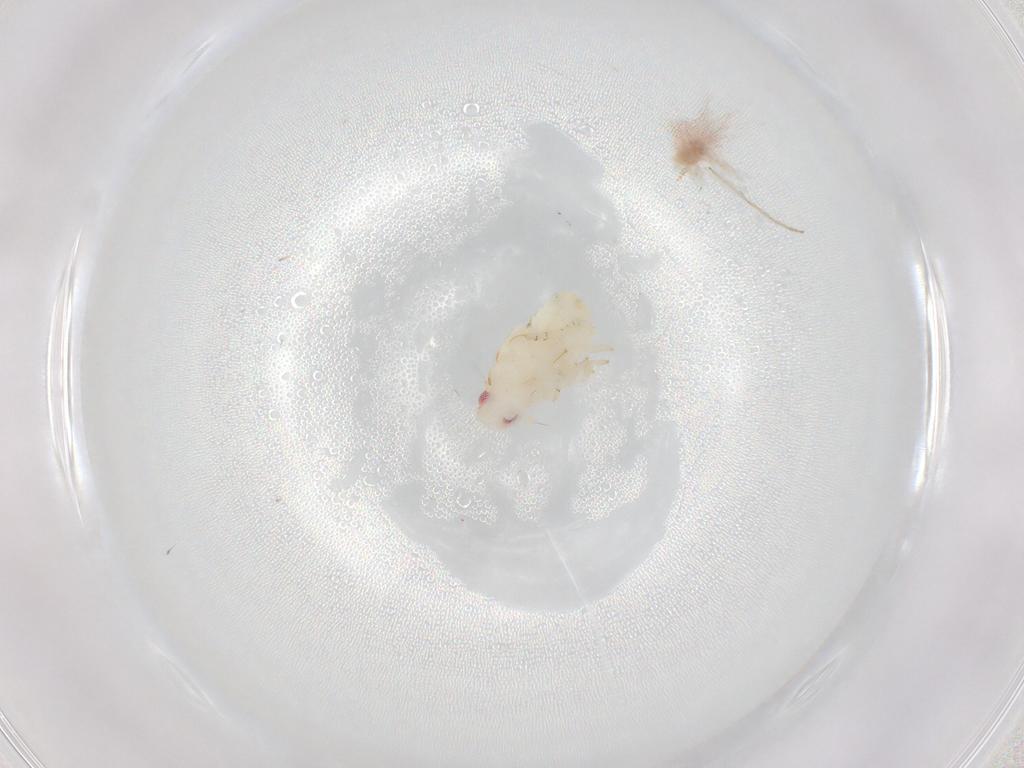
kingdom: Animalia
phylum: Arthropoda
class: Insecta
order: Hemiptera
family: Flatidae
